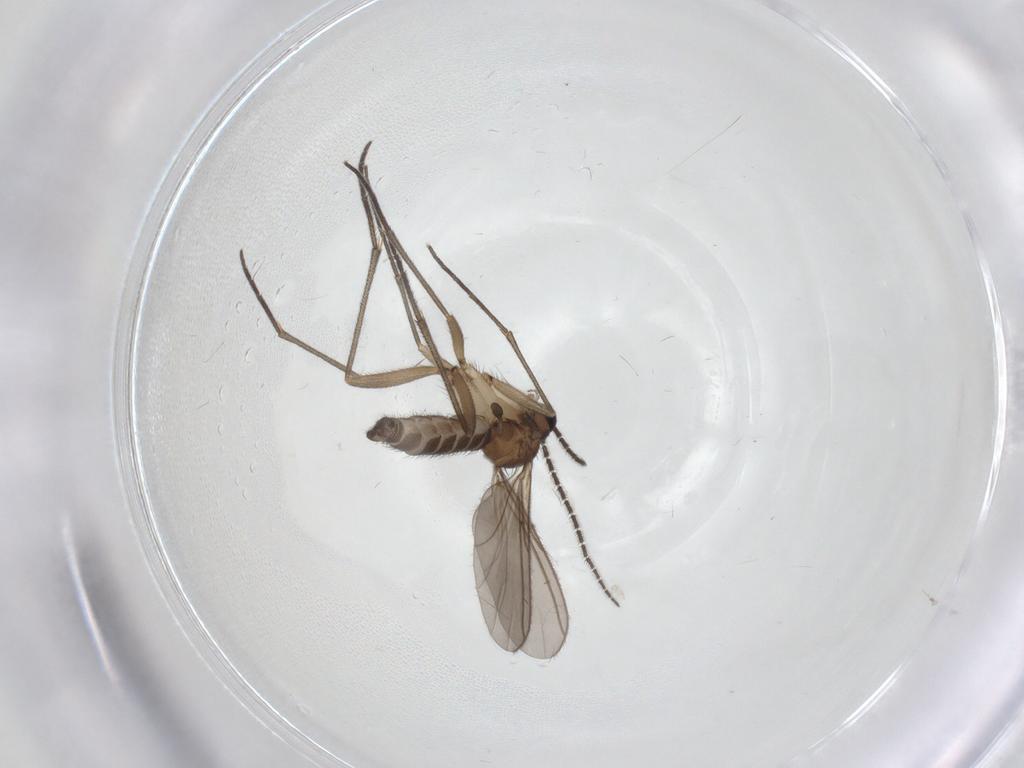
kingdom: Animalia
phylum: Arthropoda
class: Insecta
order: Diptera
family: Sciaridae
